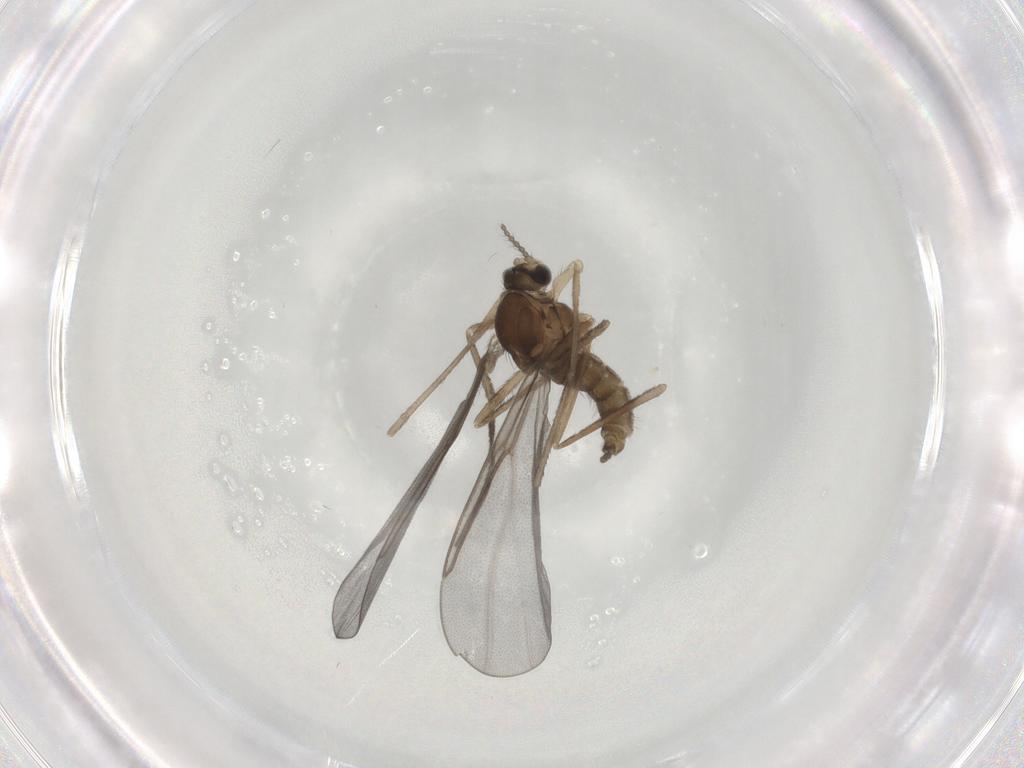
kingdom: Animalia
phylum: Arthropoda
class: Insecta
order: Diptera
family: Cecidomyiidae
